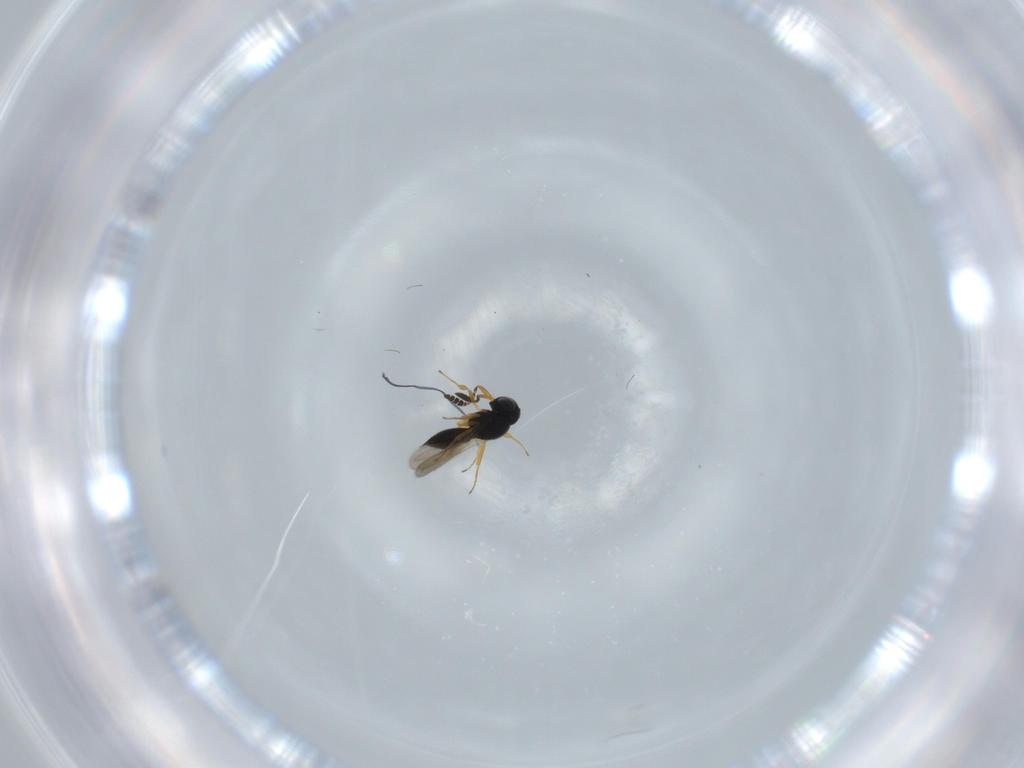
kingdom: Animalia
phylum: Arthropoda
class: Insecta
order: Hymenoptera
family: Scelionidae
